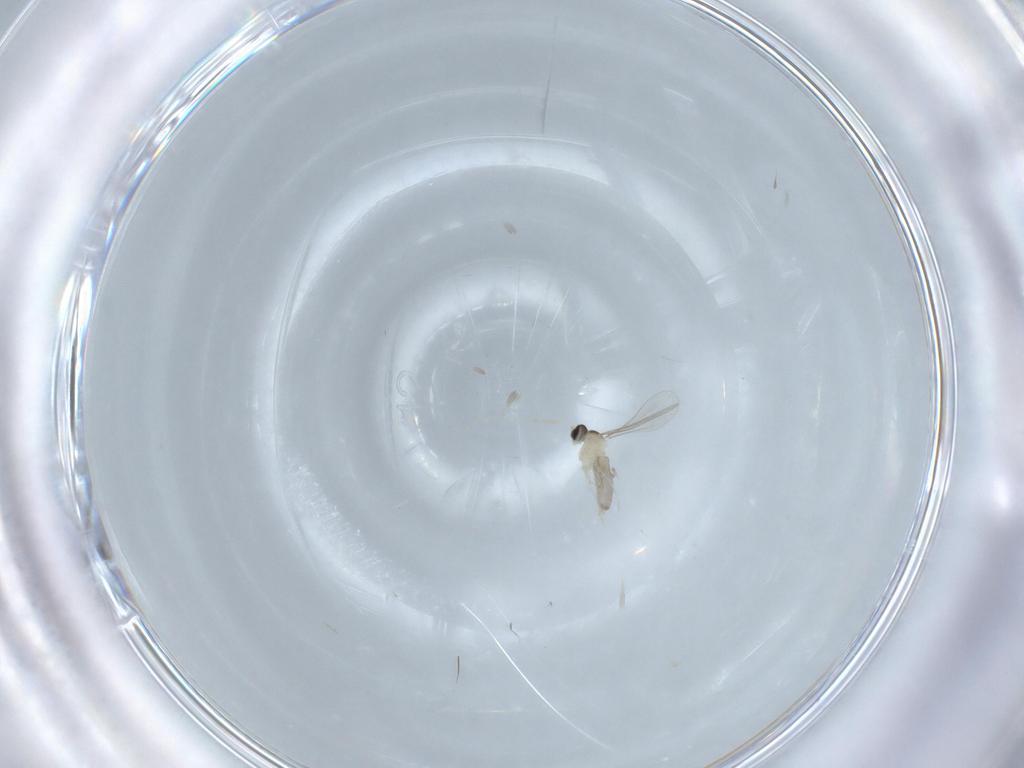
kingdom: Animalia
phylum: Arthropoda
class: Insecta
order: Diptera
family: Chironomidae
